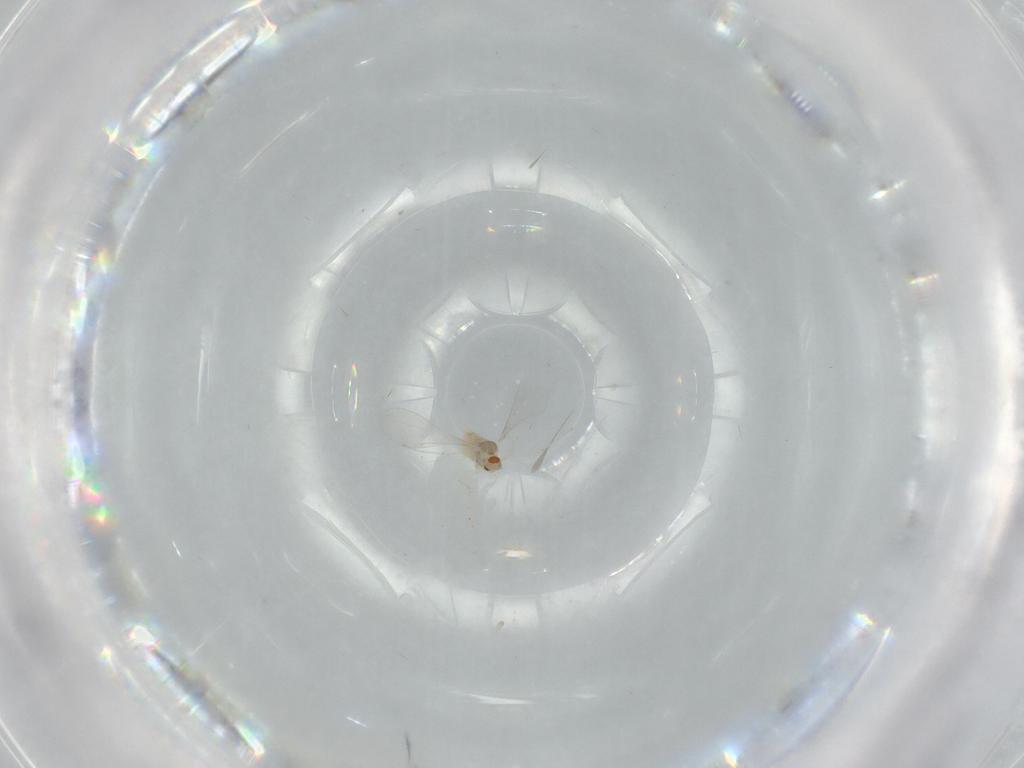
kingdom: Animalia
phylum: Arthropoda
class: Insecta
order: Diptera
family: Cecidomyiidae
